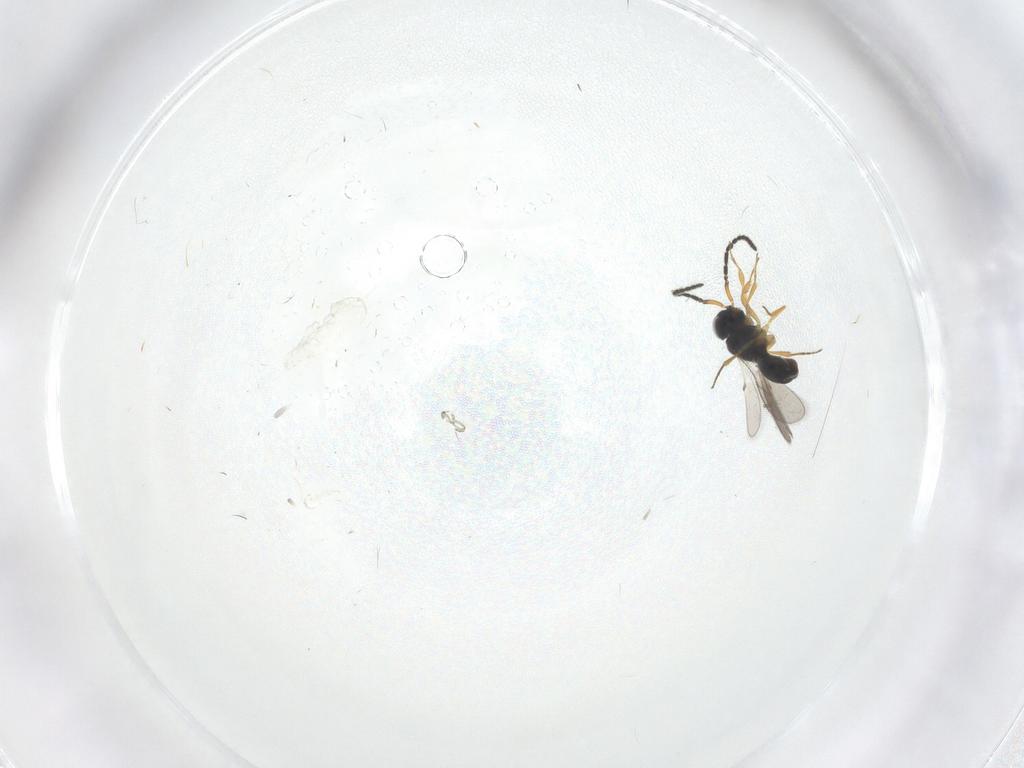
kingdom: Animalia
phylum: Arthropoda
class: Insecta
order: Hymenoptera
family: Scelionidae
